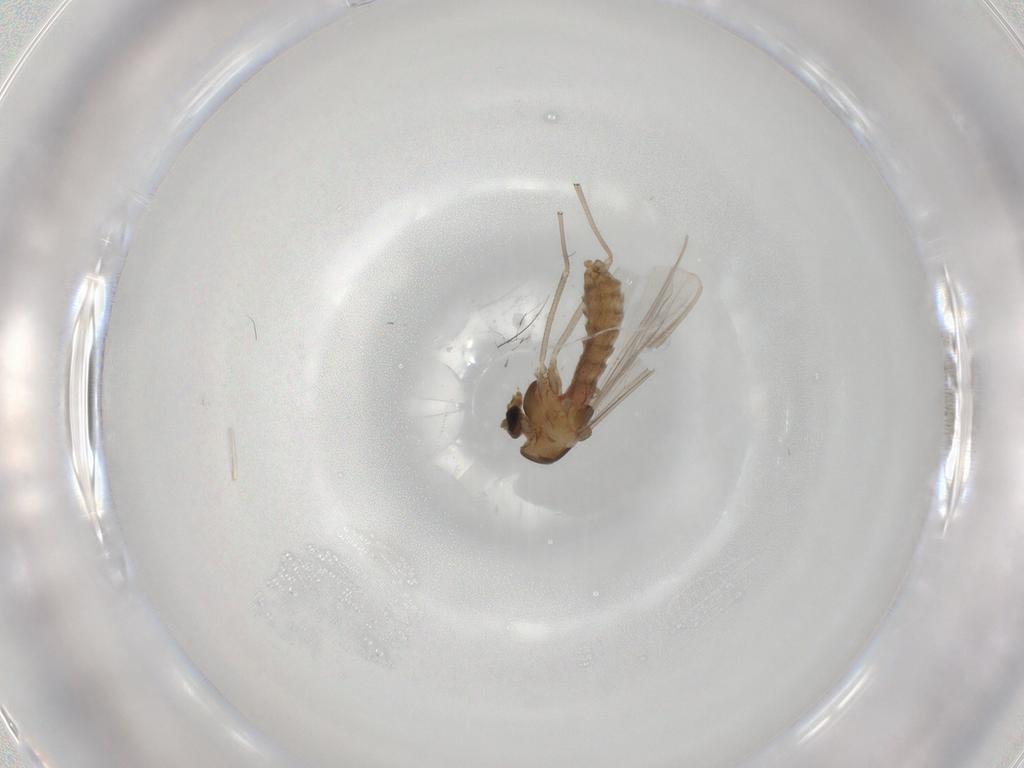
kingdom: Animalia
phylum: Arthropoda
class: Insecta
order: Diptera
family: Chironomidae
